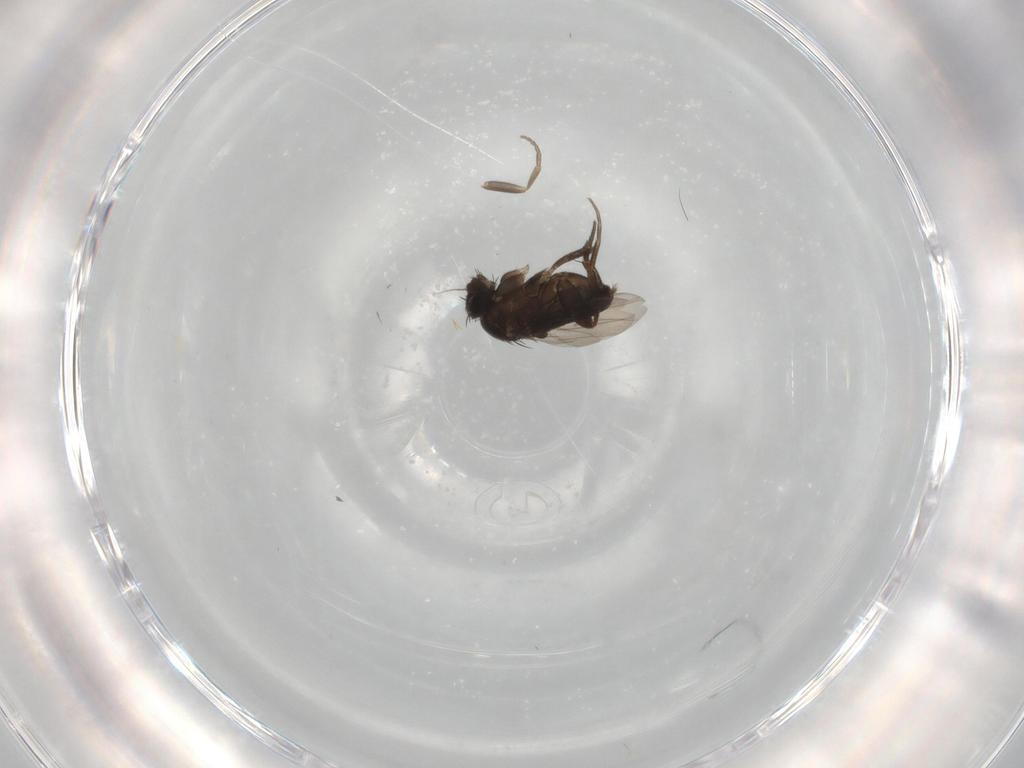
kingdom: Animalia
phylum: Arthropoda
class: Insecta
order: Diptera
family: Phoridae
